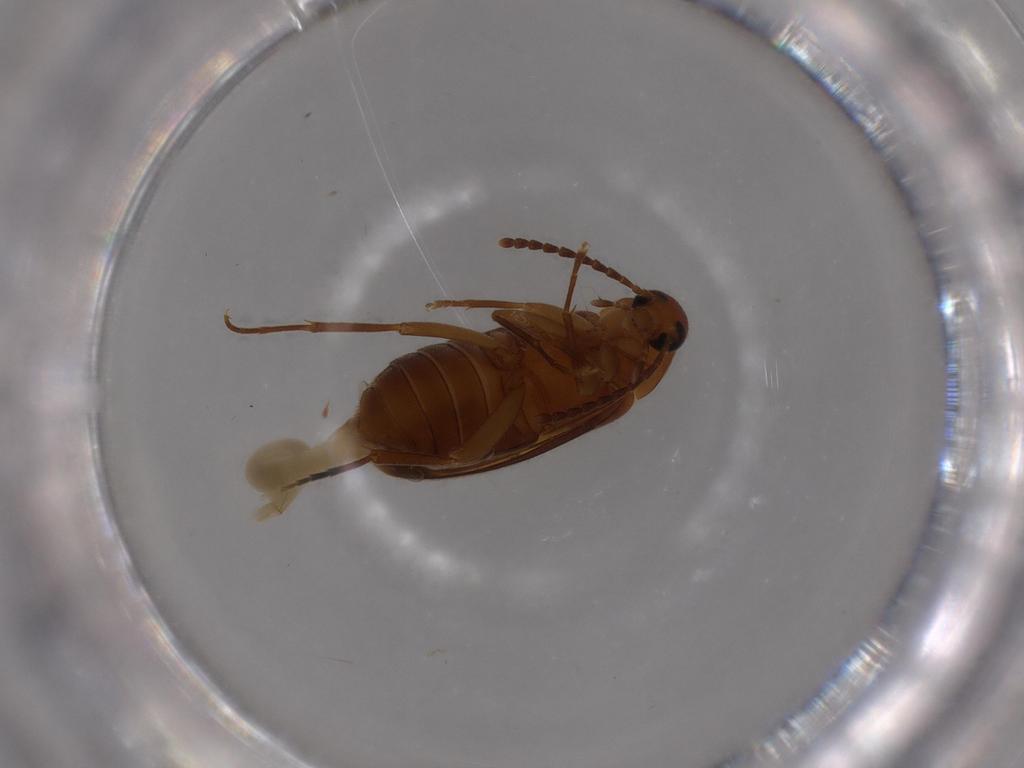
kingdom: Animalia
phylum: Arthropoda
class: Insecta
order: Coleoptera
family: Scraptiidae
